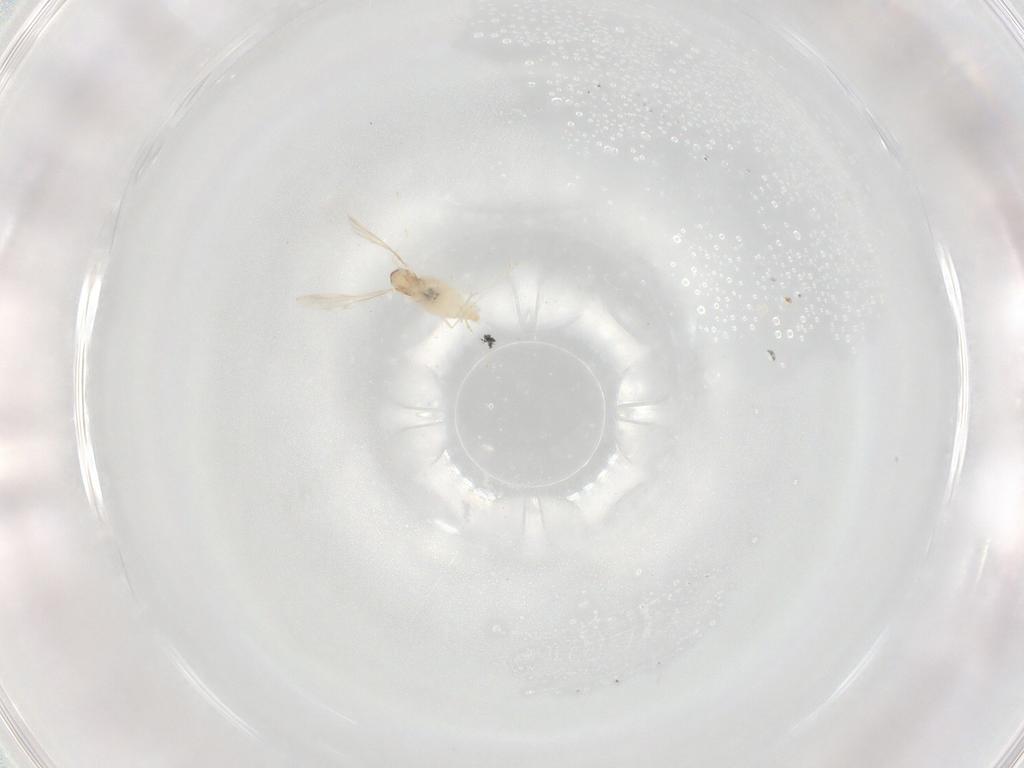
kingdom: Animalia
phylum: Arthropoda
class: Insecta
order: Diptera
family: Cecidomyiidae
